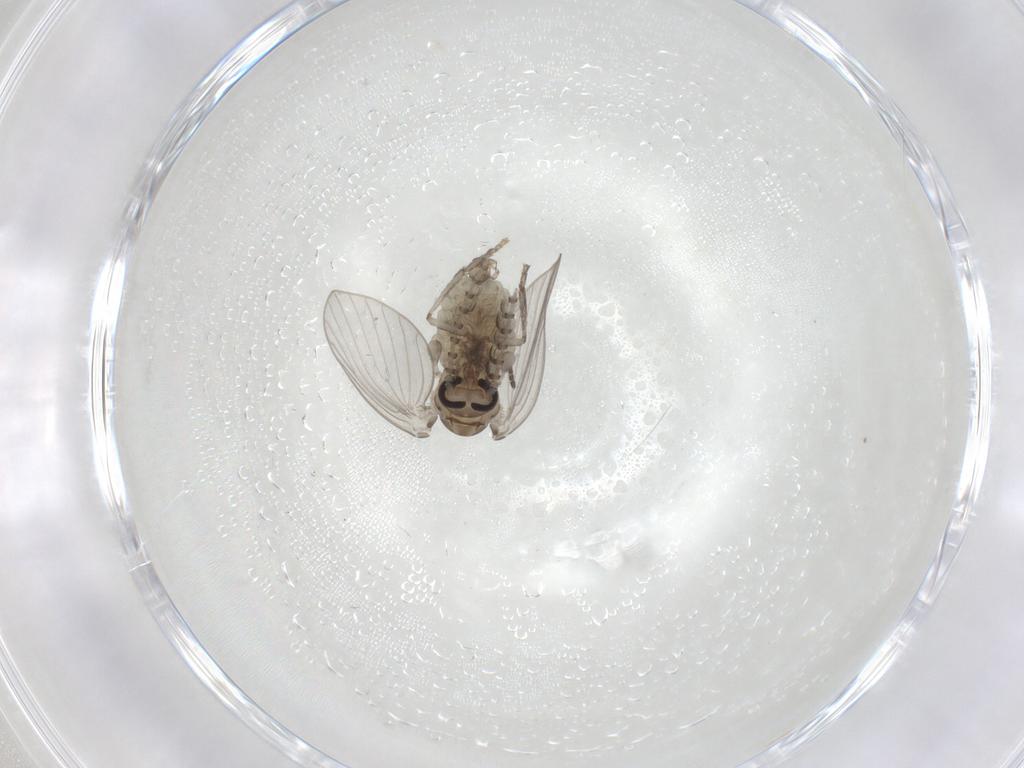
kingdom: Animalia
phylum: Arthropoda
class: Insecta
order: Diptera
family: Sciaridae
